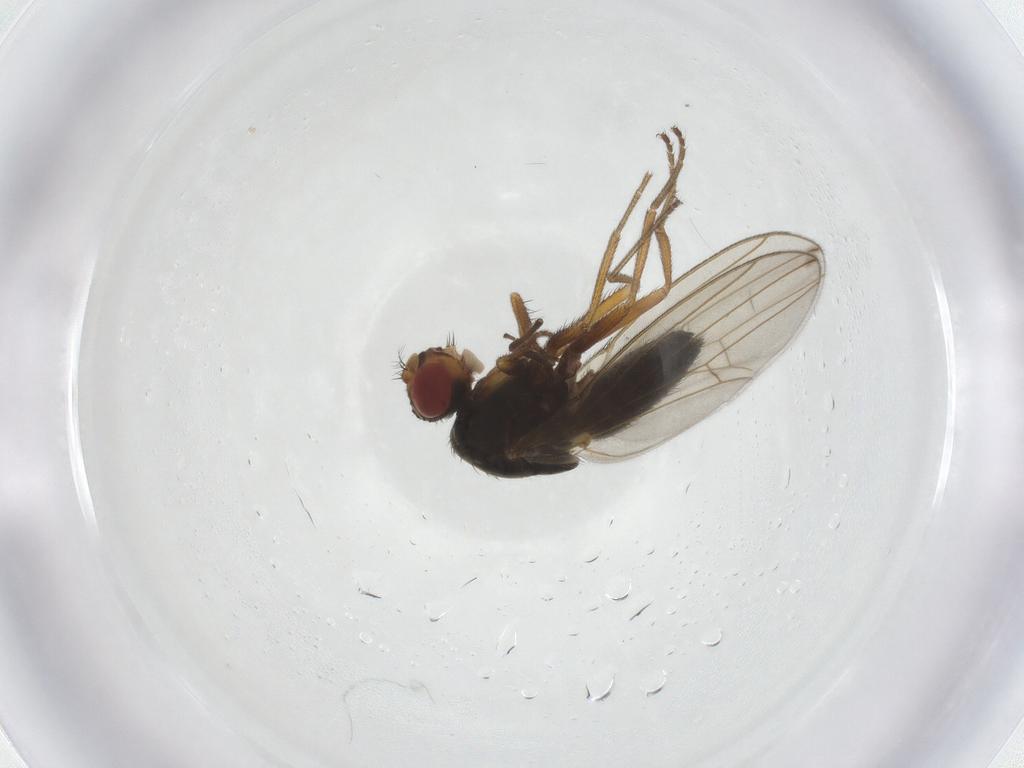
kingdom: Animalia
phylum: Arthropoda
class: Insecta
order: Diptera
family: Drosophilidae
